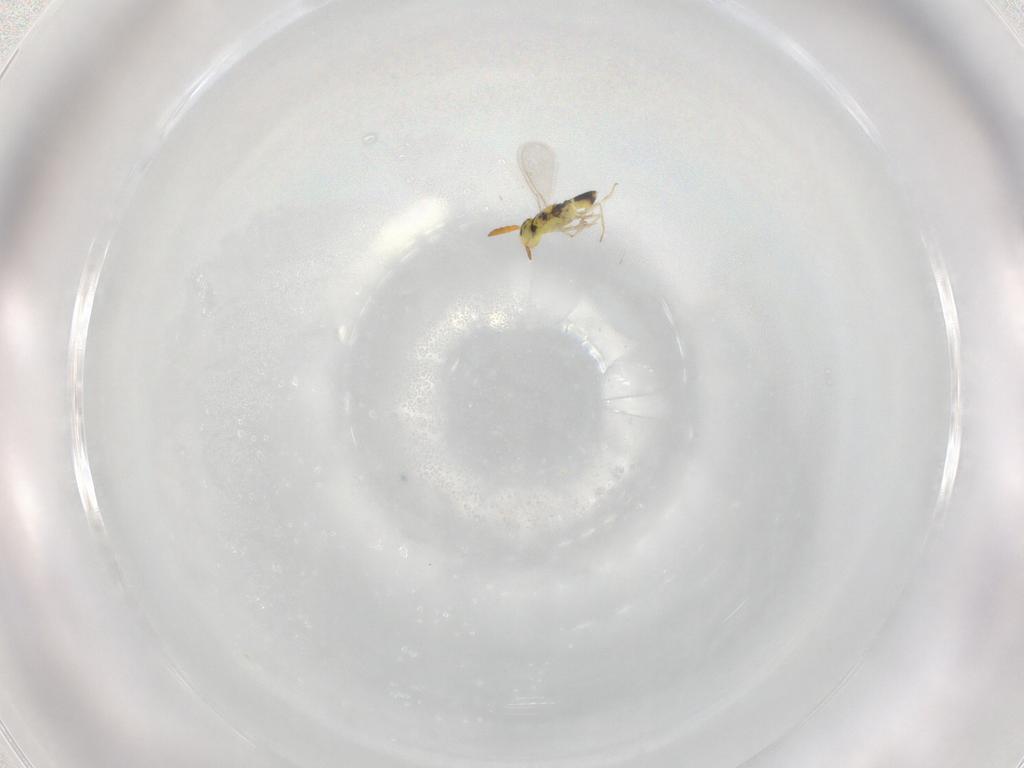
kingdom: Animalia
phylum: Arthropoda
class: Insecta
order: Hymenoptera
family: Aphelinidae
